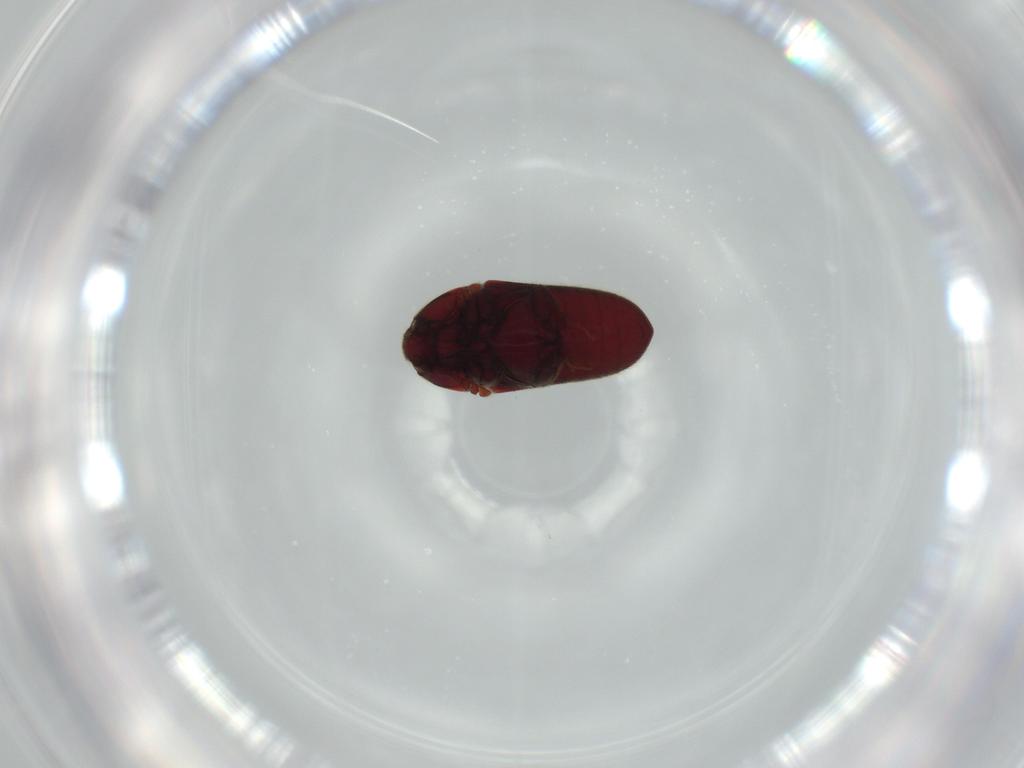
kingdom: Animalia
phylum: Arthropoda
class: Insecta
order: Coleoptera
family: Throscidae
